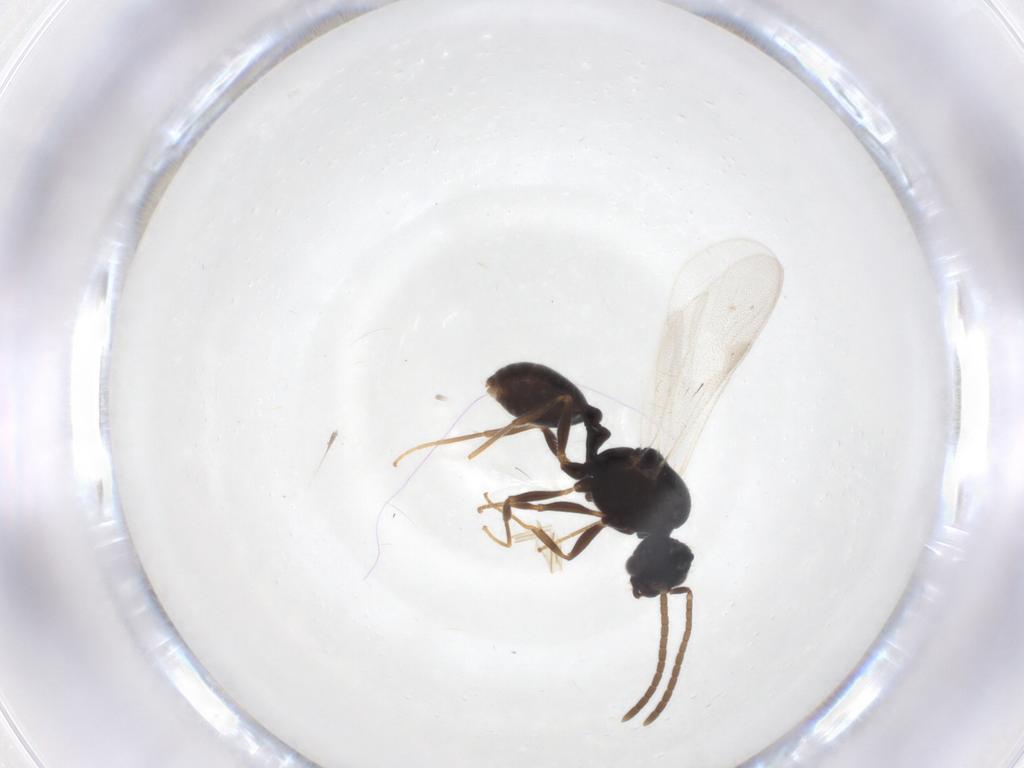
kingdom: Animalia
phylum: Arthropoda
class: Insecta
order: Hymenoptera
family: Formicidae
